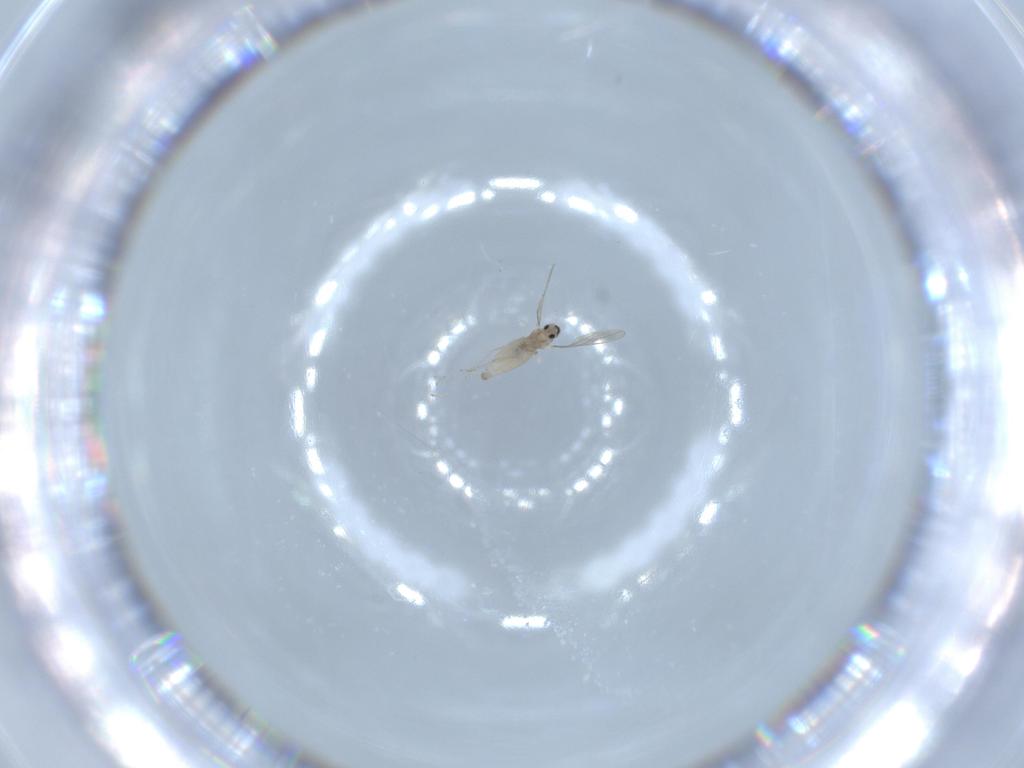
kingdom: Animalia
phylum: Arthropoda
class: Insecta
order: Diptera
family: Cecidomyiidae
